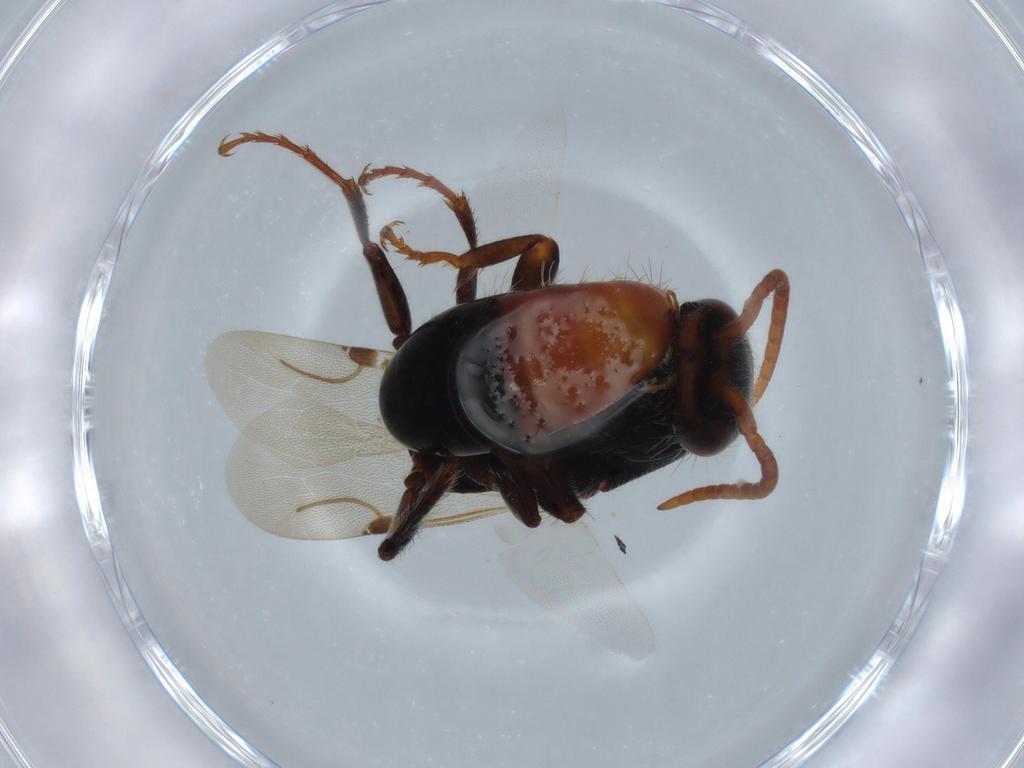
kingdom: Animalia
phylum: Arthropoda
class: Insecta
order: Hymenoptera
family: Bethylidae
